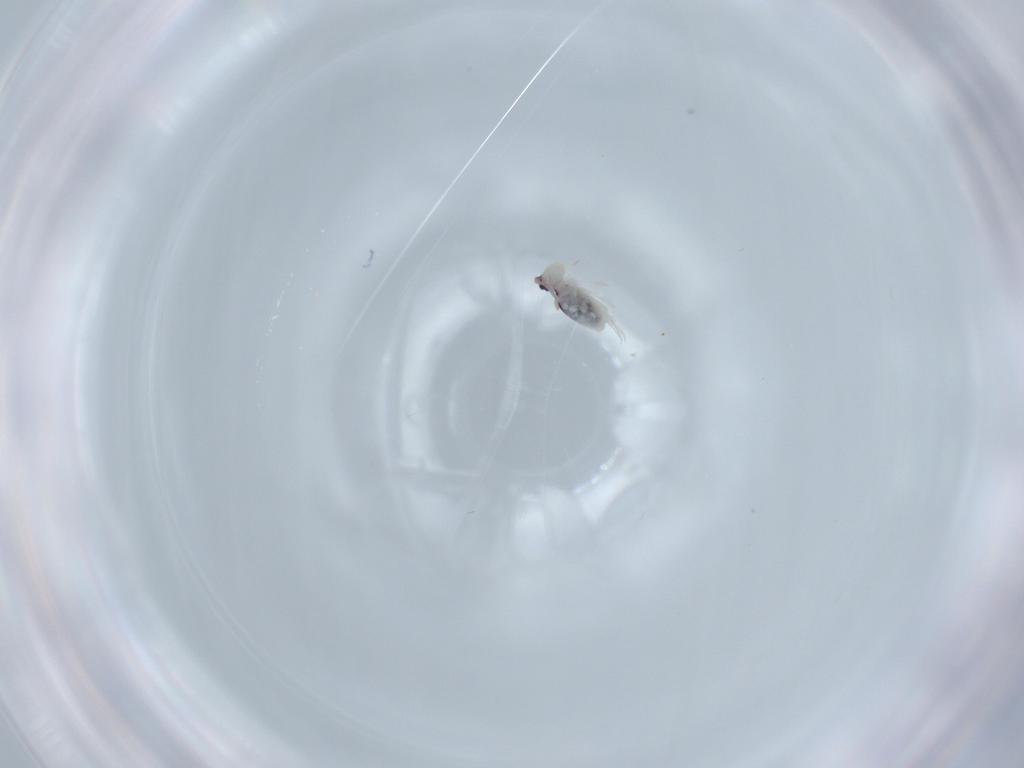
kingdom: Animalia
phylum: Arthropoda
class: Collembola
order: Symphypleona
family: Bourletiellidae
